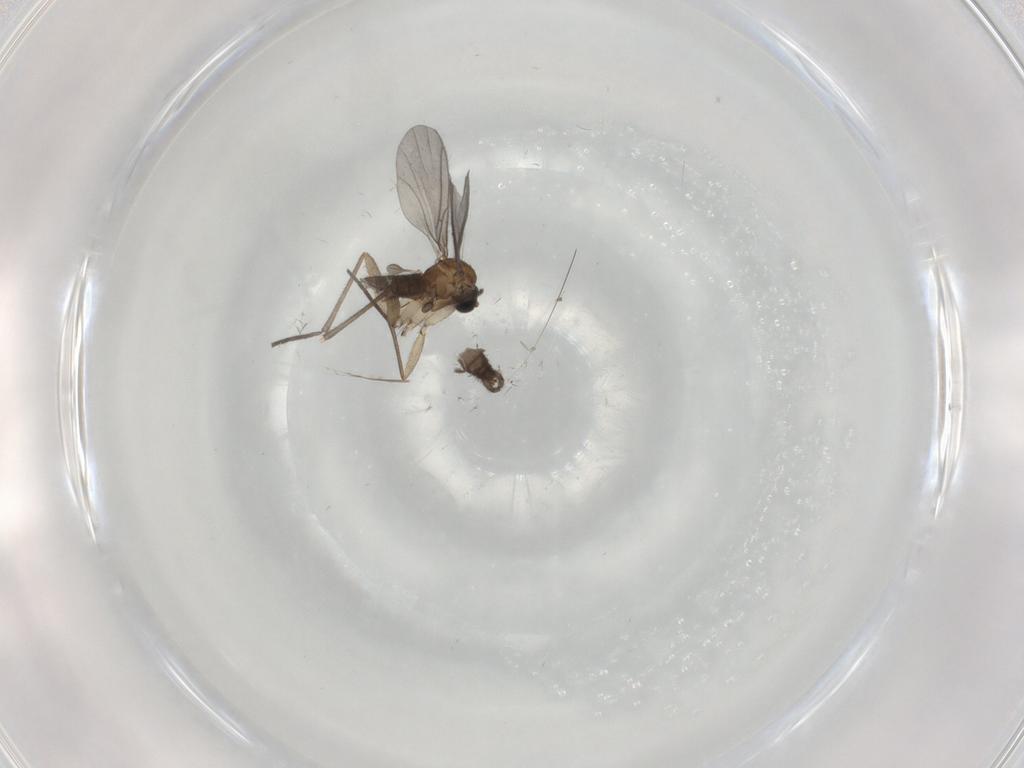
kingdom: Animalia
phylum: Arthropoda
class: Insecta
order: Diptera
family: Sciaridae
